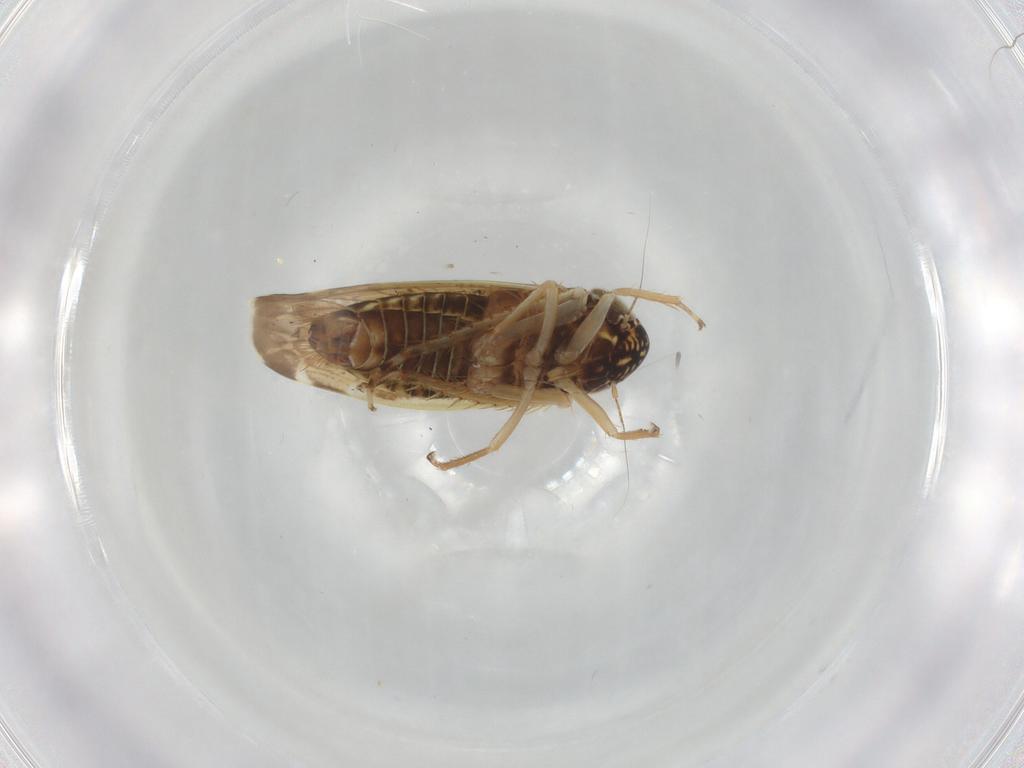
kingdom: Animalia
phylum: Arthropoda
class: Insecta
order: Hemiptera
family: Cicadellidae
